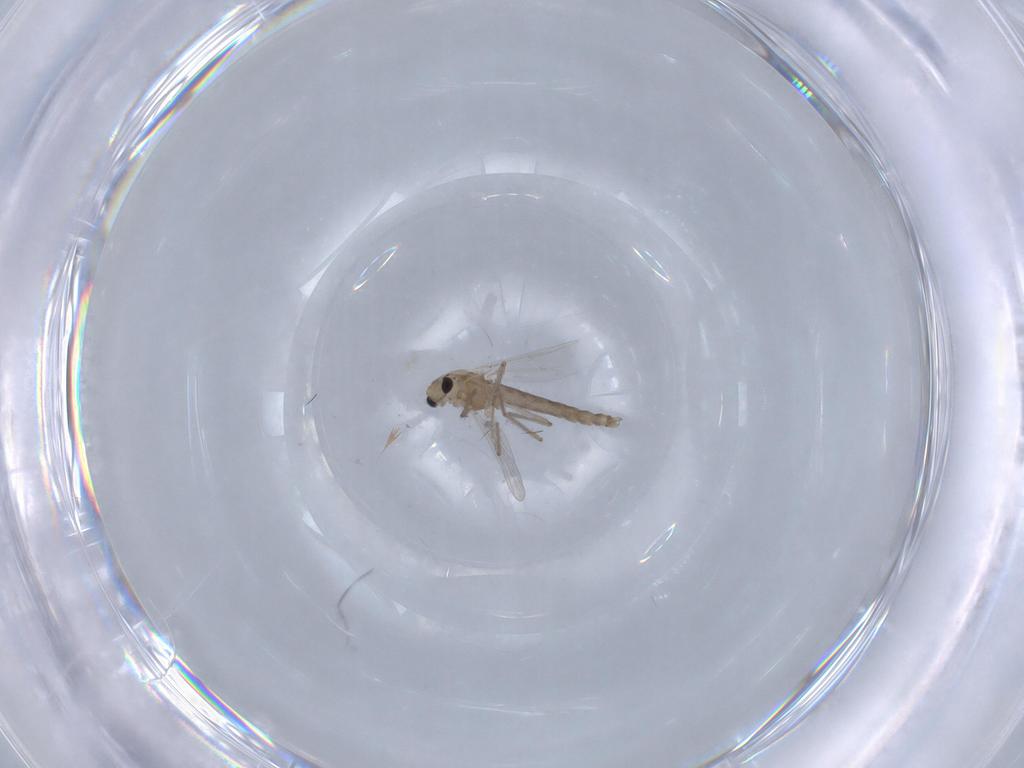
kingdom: Animalia
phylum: Arthropoda
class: Insecta
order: Diptera
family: Chironomidae
